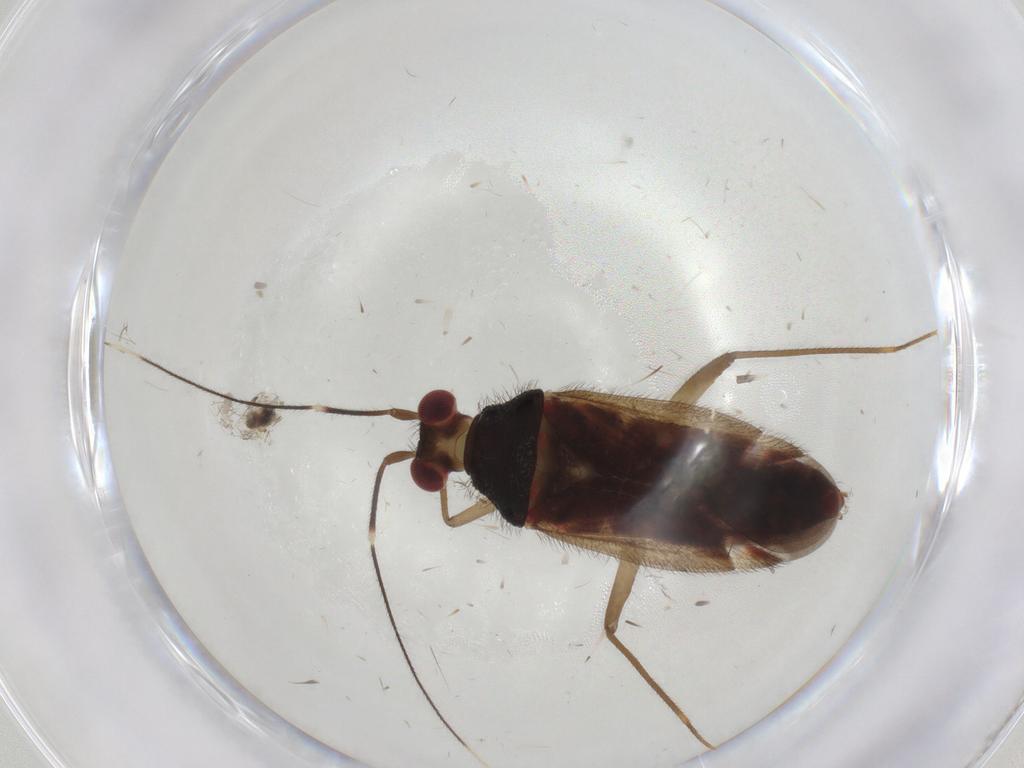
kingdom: Animalia
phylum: Arthropoda
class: Insecta
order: Hemiptera
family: Miridae
